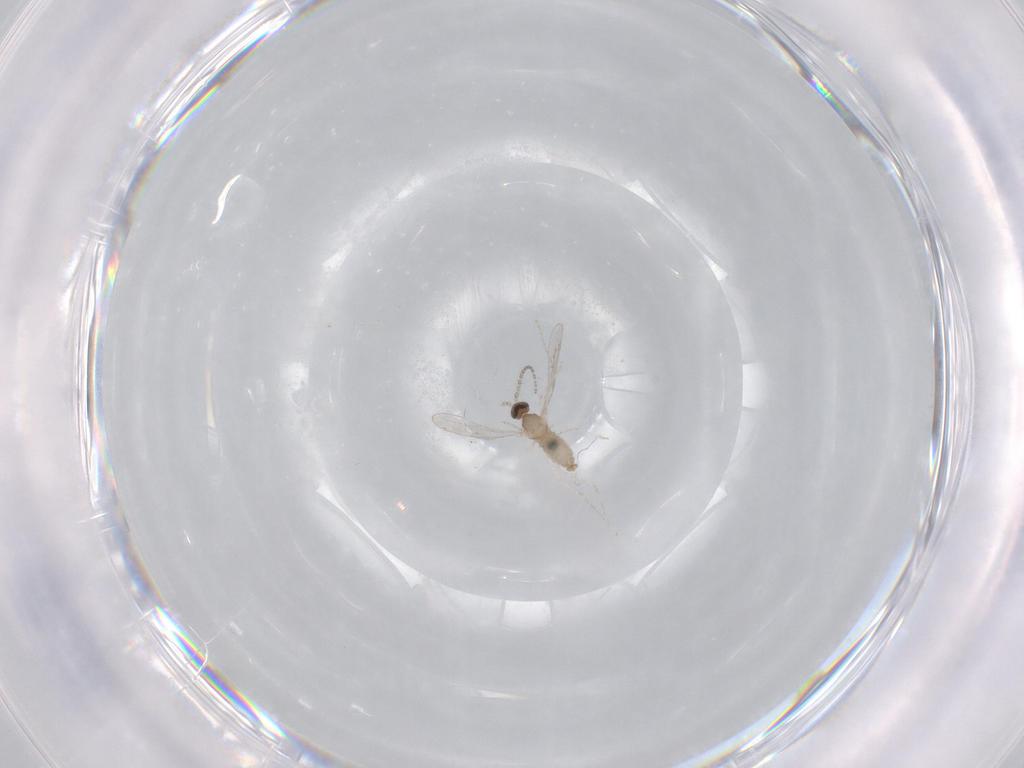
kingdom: Animalia
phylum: Arthropoda
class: Insecta
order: Diptera
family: Cecidomyiidae
